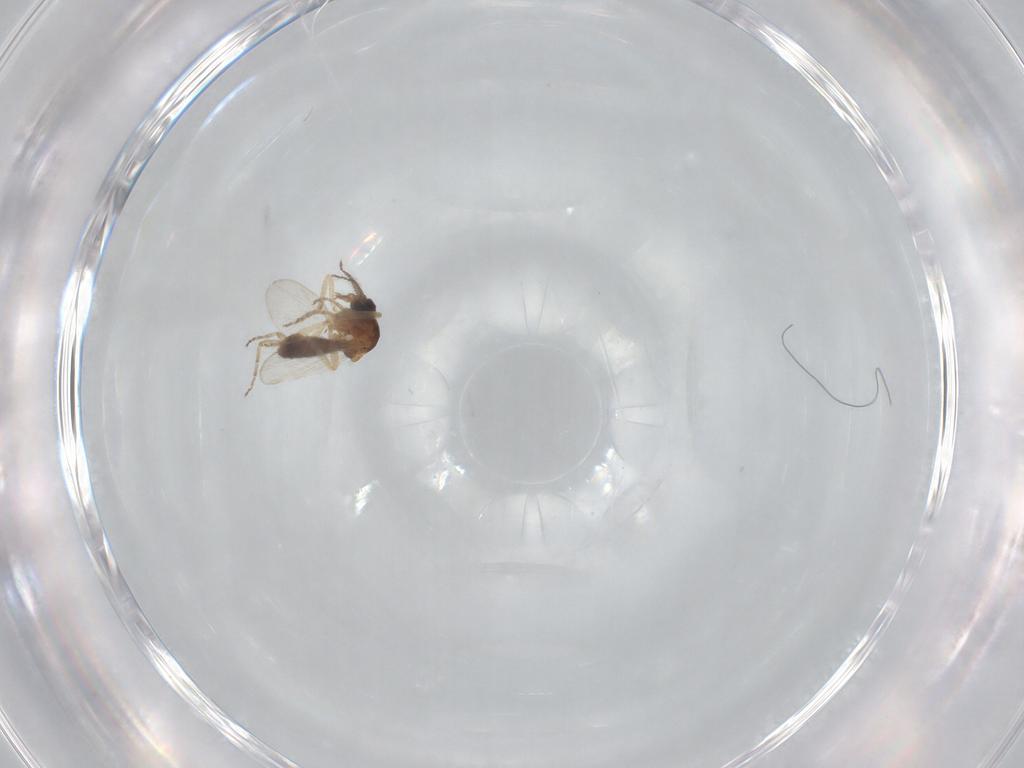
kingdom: Animalia
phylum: Arthropoda
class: Insecta
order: Diptera
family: Ceratopogonidae
